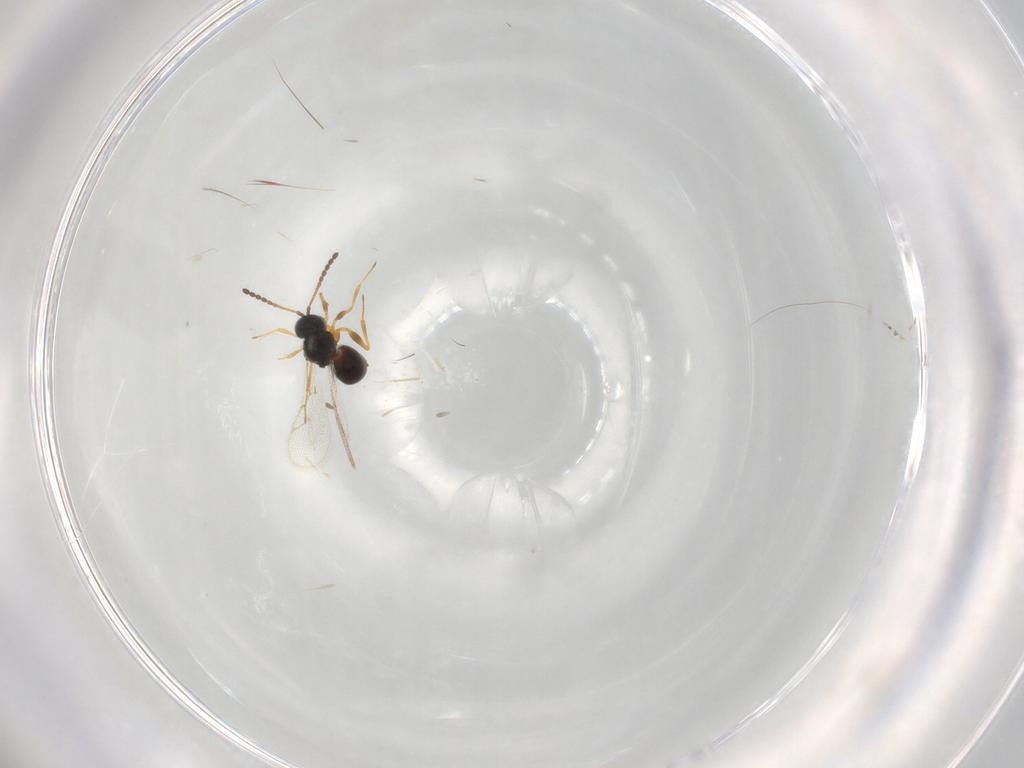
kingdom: Animalia
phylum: Arthropoda
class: Insecta
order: Hymenoptera
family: Figitidae
